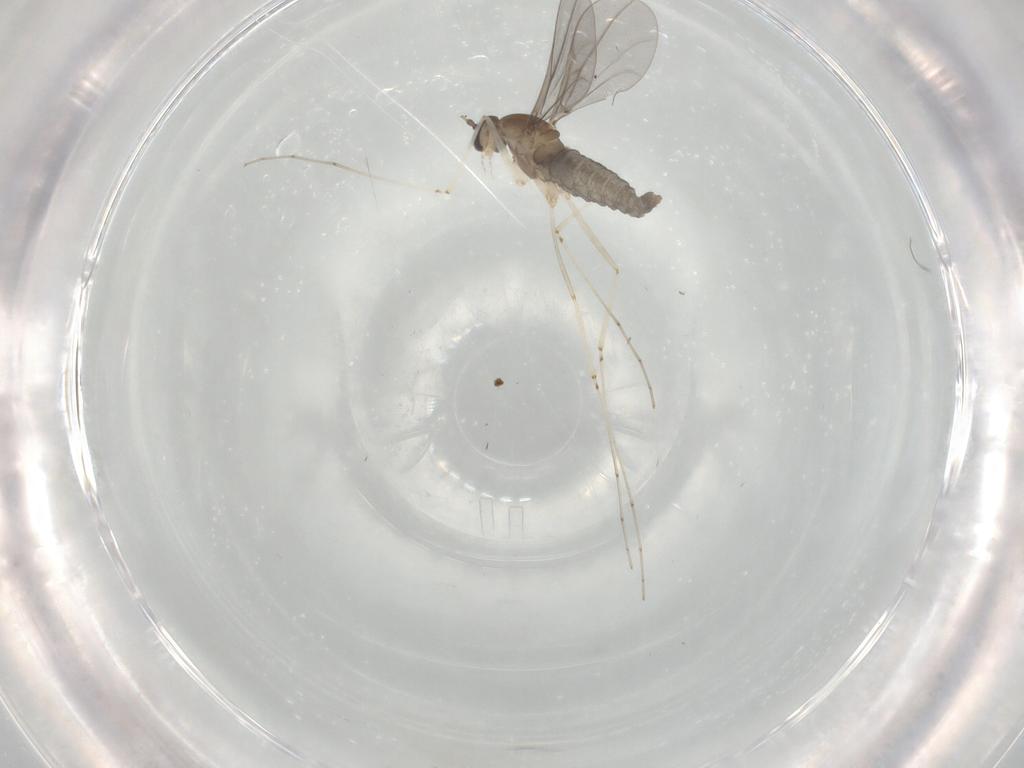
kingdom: Animalia
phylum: Arthropoda
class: Insecta
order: Diptera
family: Cecidomyiidae
